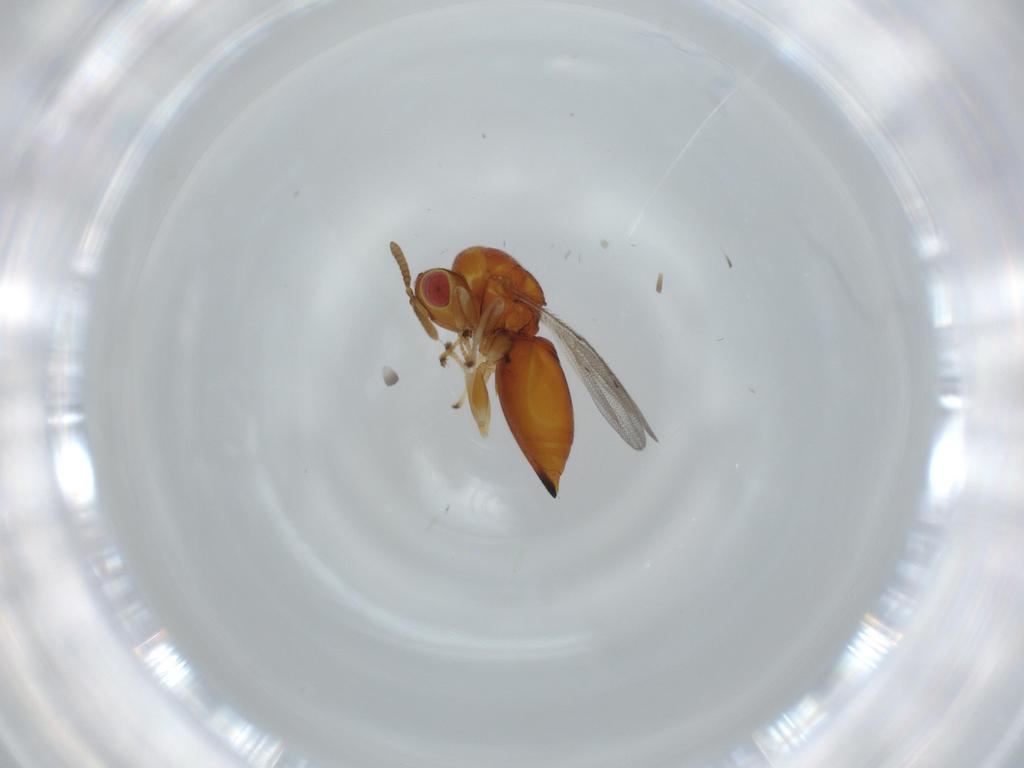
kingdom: Animalia
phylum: Arthropoda
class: Insecta
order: Hymenoptera
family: Eurytomidae
